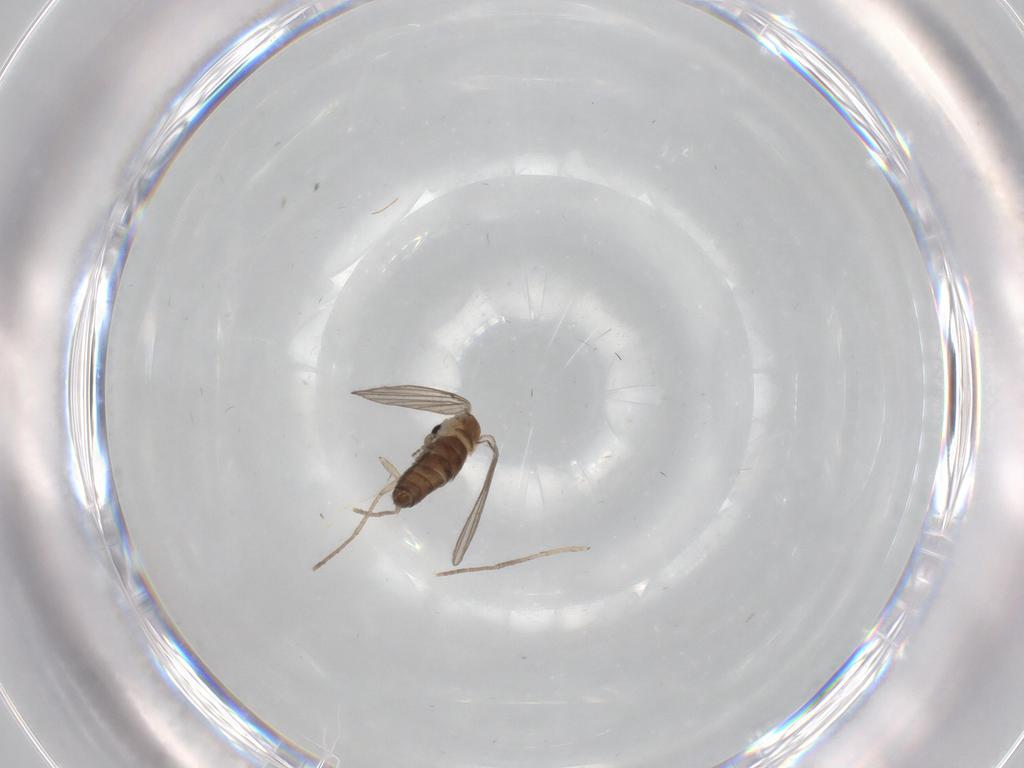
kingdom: Animalia
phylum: Arthropoda
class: Insecta
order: Diptera
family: Psychodidae
